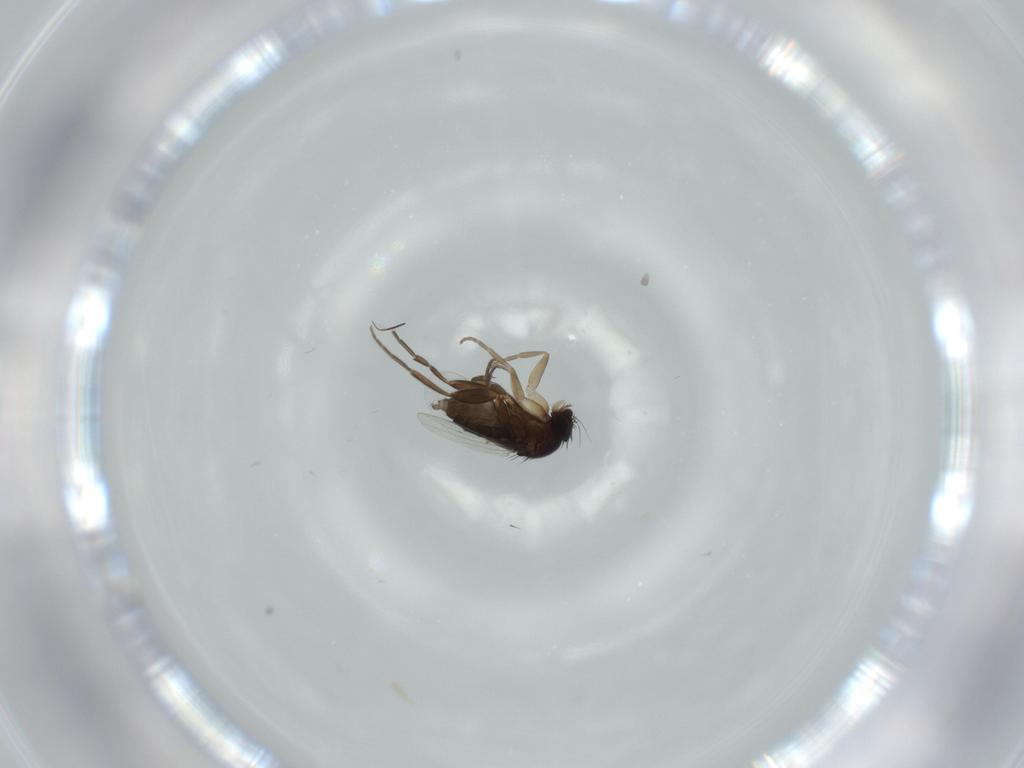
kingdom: Animalia
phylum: Arthropoda
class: Insecta
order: Diptera
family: Phoridae
